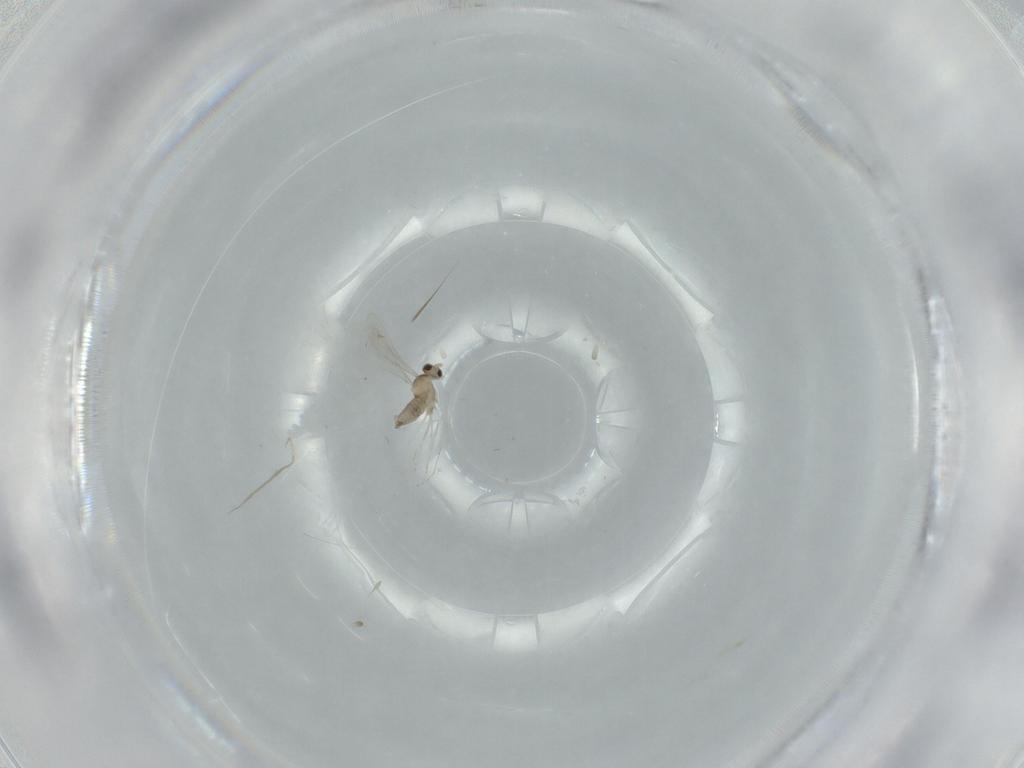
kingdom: Animalia
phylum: Arthropoda
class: Insecta
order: Diptera
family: Cecidomyiidae
